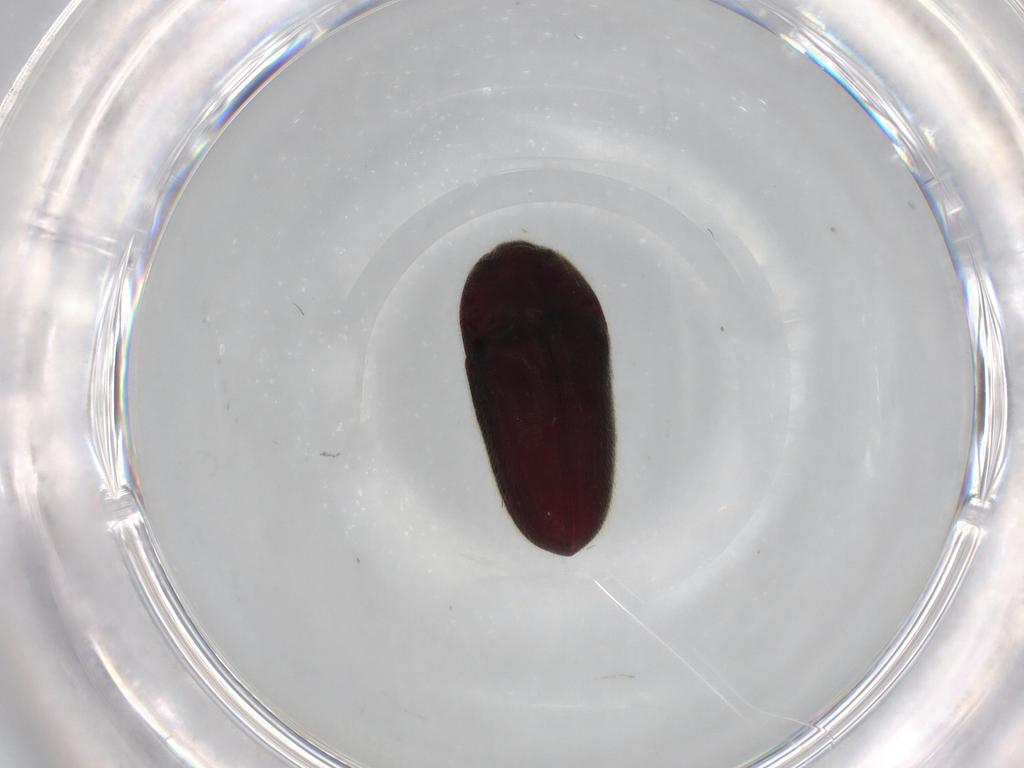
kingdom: Animalia
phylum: Arthropoda
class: Insecta
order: Coleoptera
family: Throscidae
